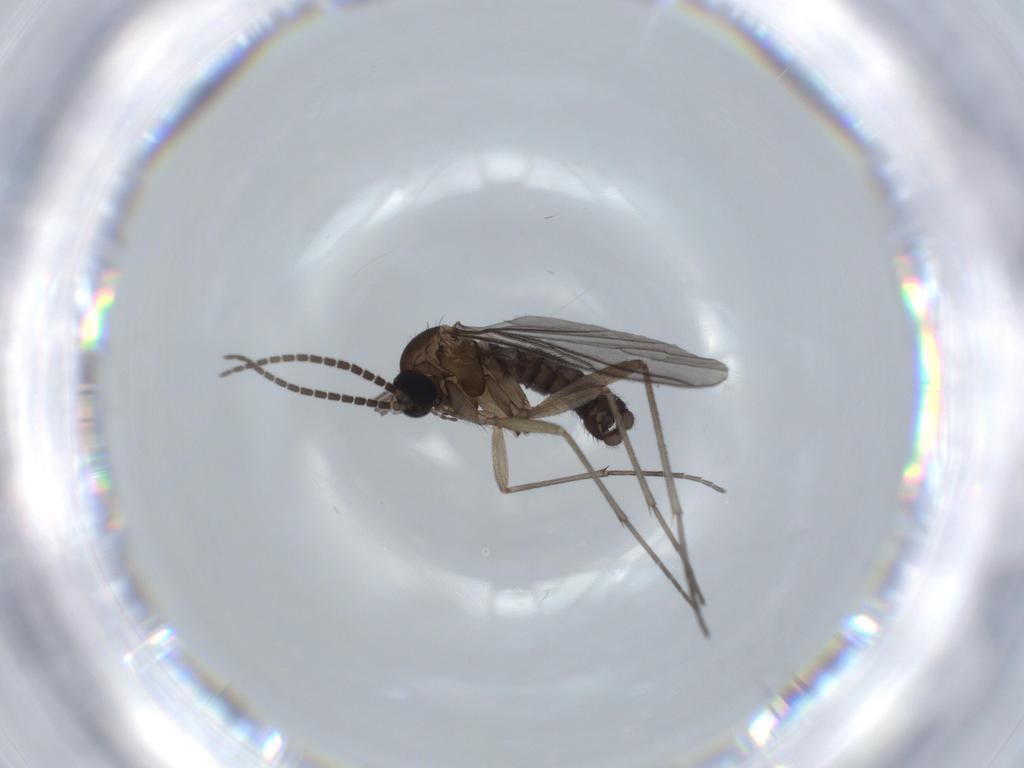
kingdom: Animalia
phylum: Arthropoda
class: Insecta
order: Diptera
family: Sciaridae
